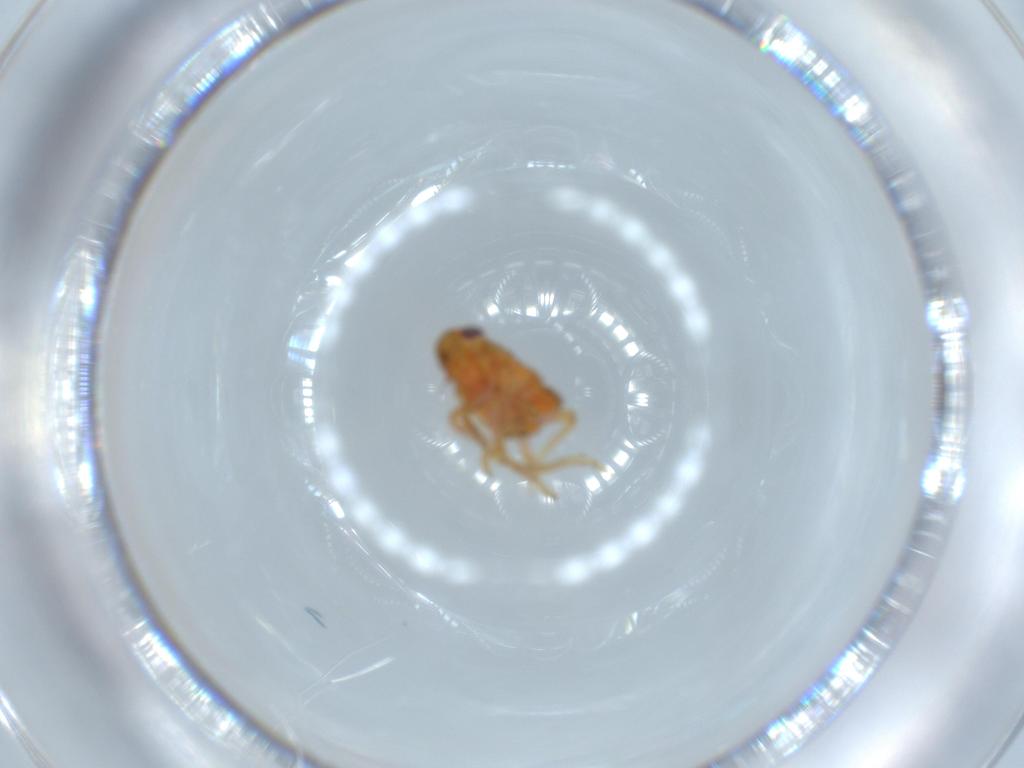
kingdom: Animalia
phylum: Arthropoda
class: Insecta
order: Hemiptera
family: Issidae
